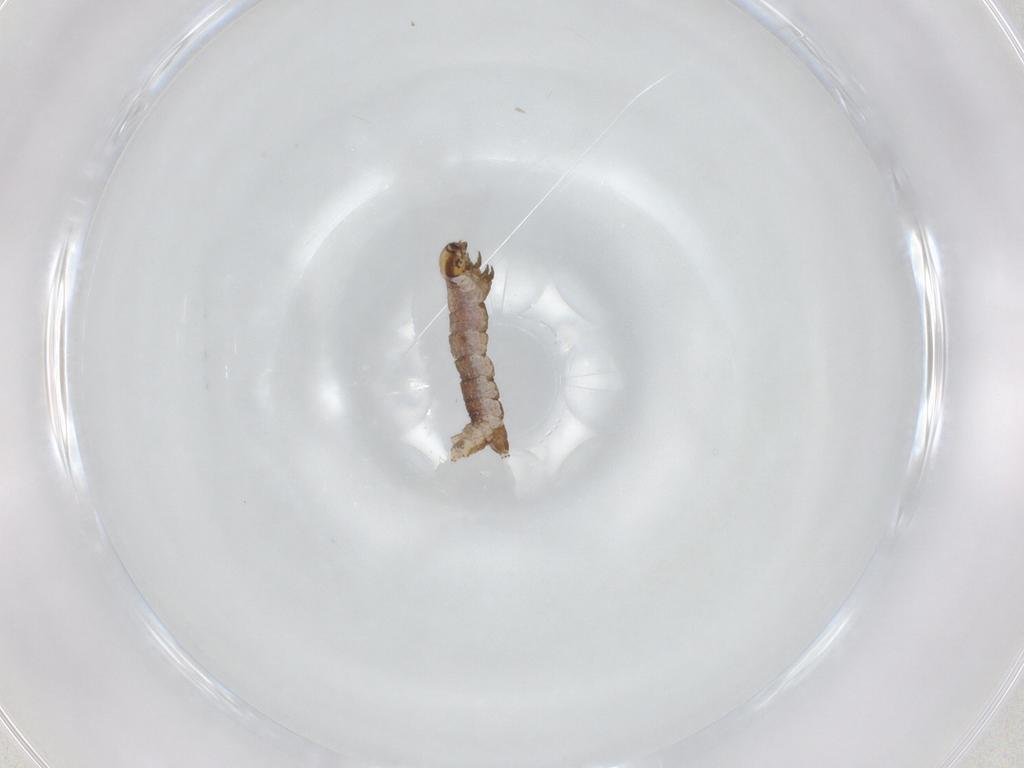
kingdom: Animalia
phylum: Arthropoda
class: Insecta
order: Lepidoptera
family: Geometridae
